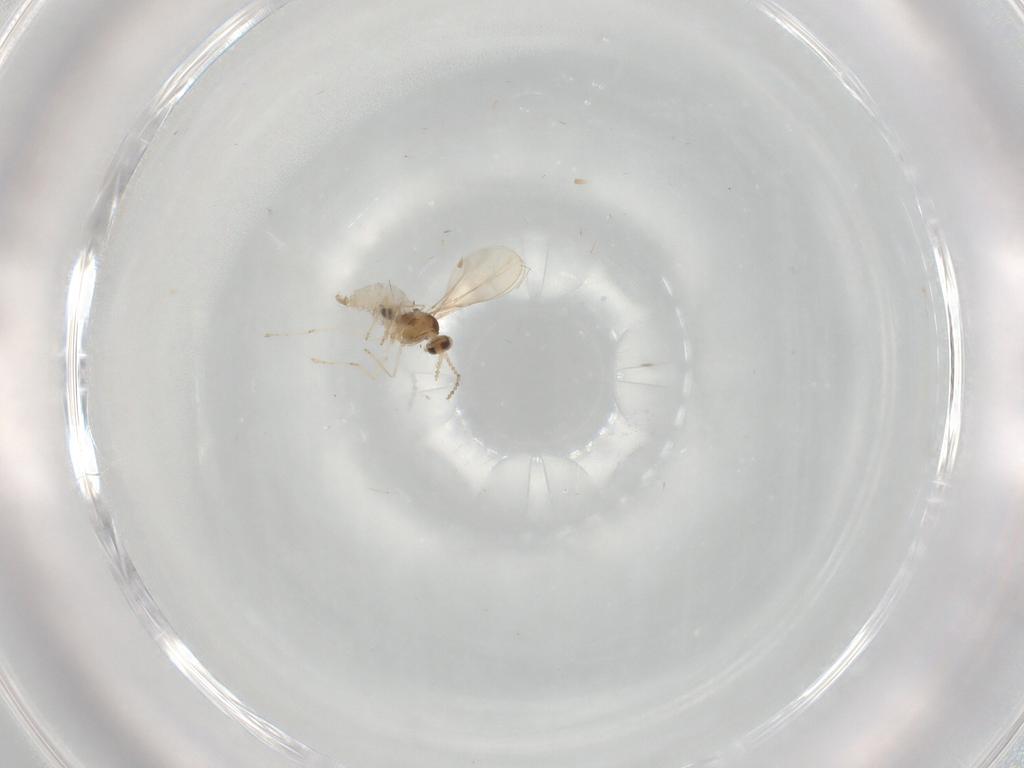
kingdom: Animalia
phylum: Arthropoda
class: Insecta
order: Diptera
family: Cecidomyiidae
